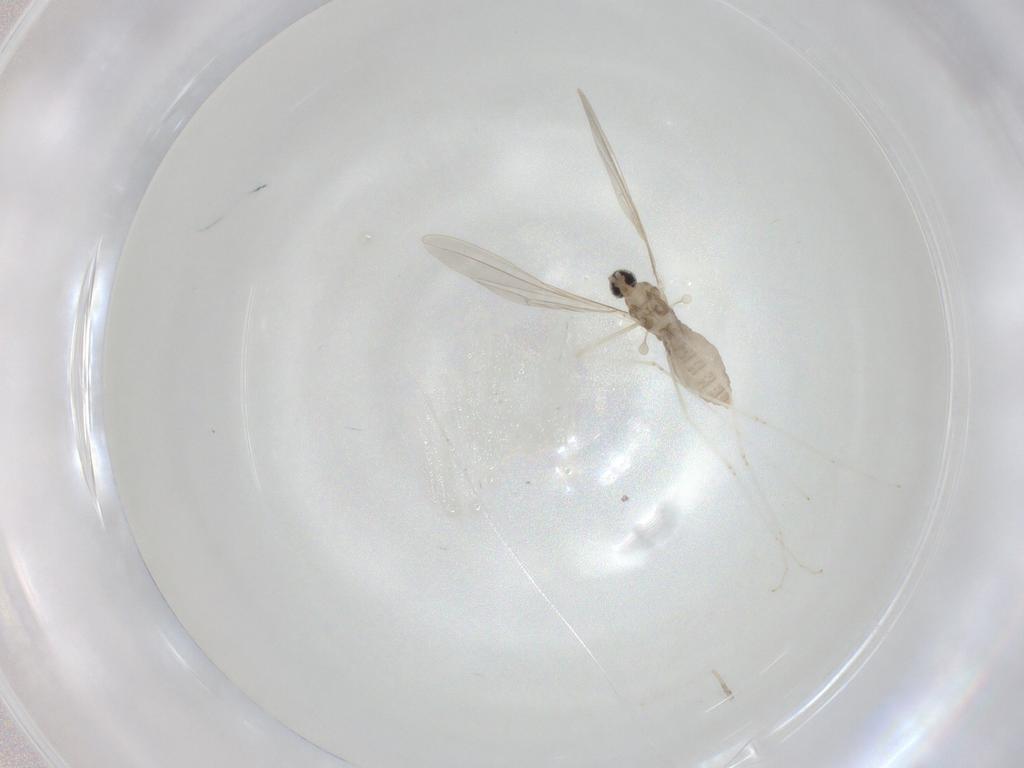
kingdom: Animalia
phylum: Arthropoda
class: Insecta
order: Diptera
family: Cecidomyiidae
